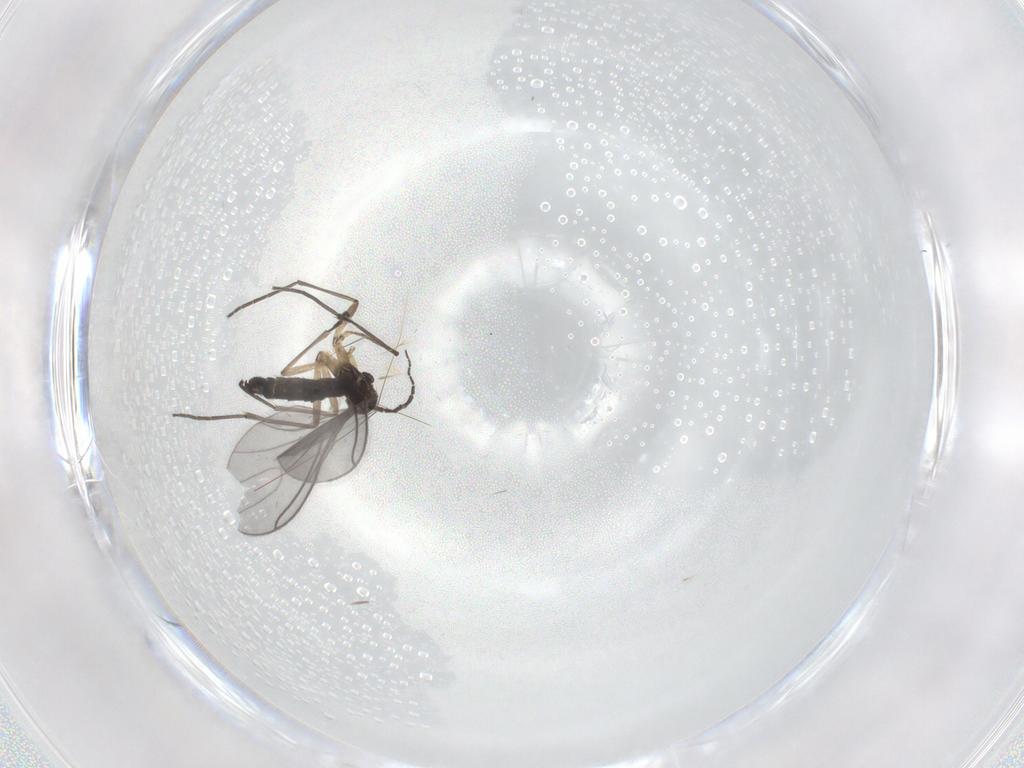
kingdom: Animalia
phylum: Arthropoda
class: Insecta
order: Diptera
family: Sciaridae
